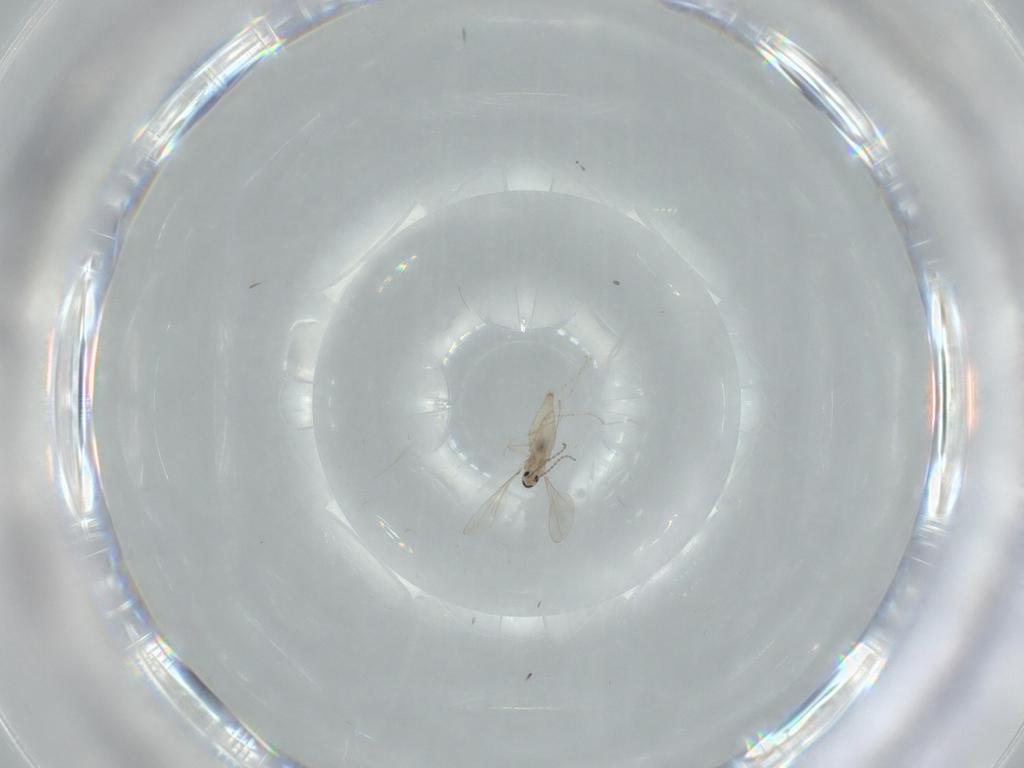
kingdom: Animalia
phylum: Arthropoda
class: Insecta
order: Diptera
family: Cecidomyiidae
